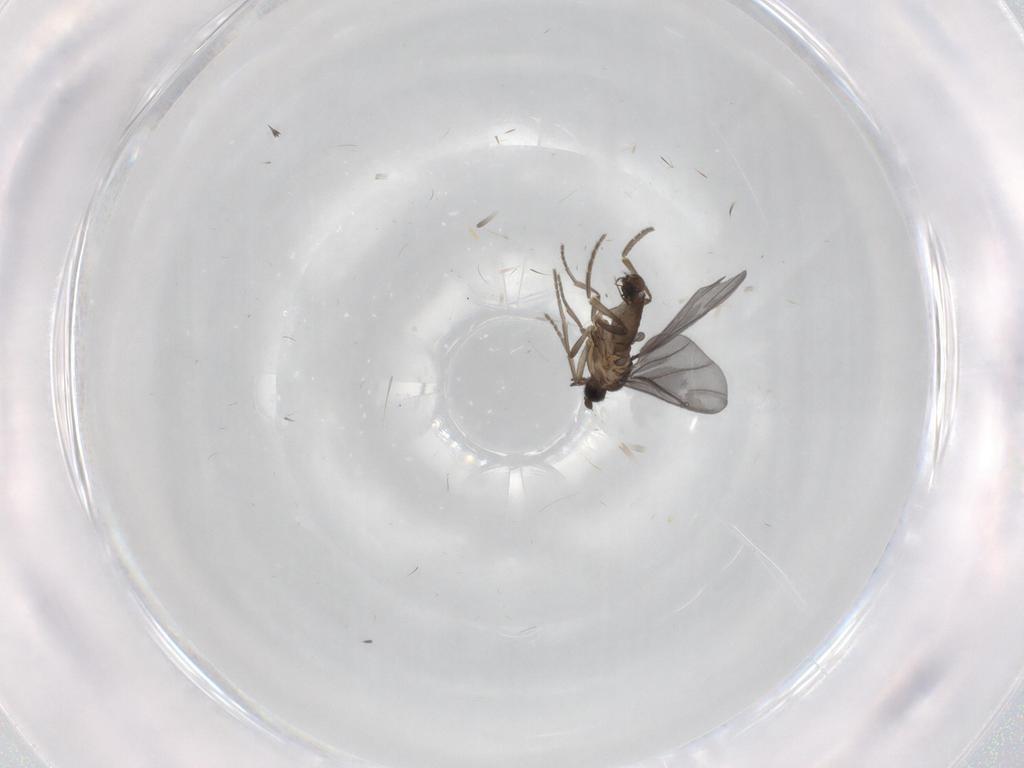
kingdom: Animalia
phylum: Arthropoda
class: Insecta
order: Diptera
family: Phoridae
